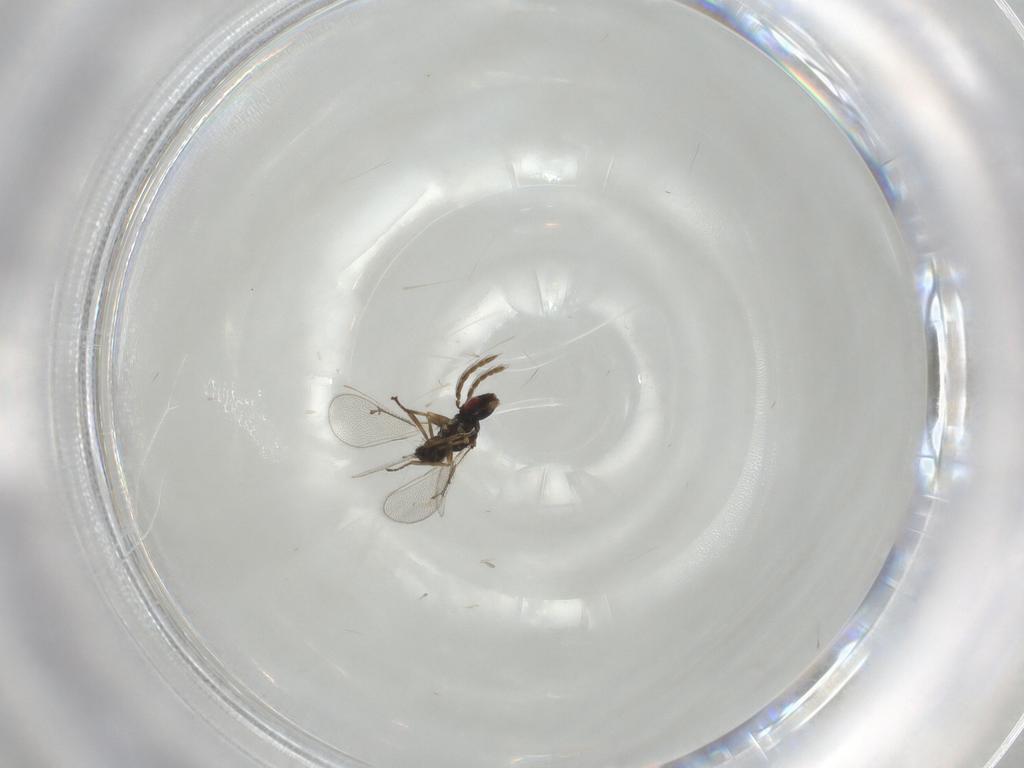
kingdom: Animalia
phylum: Arthropoda
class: Insecta
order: Hymenoptera
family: Eulophidae
